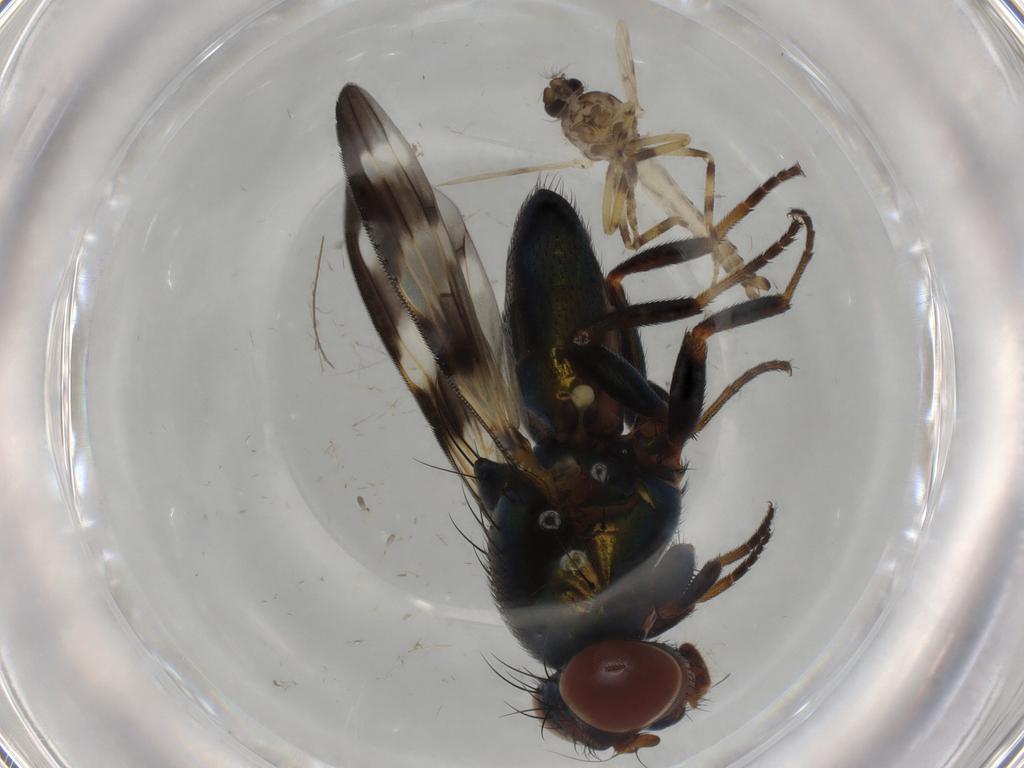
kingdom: Animalia
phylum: Arthropoda
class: Insecta
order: Diptera
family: Ulidiidae
